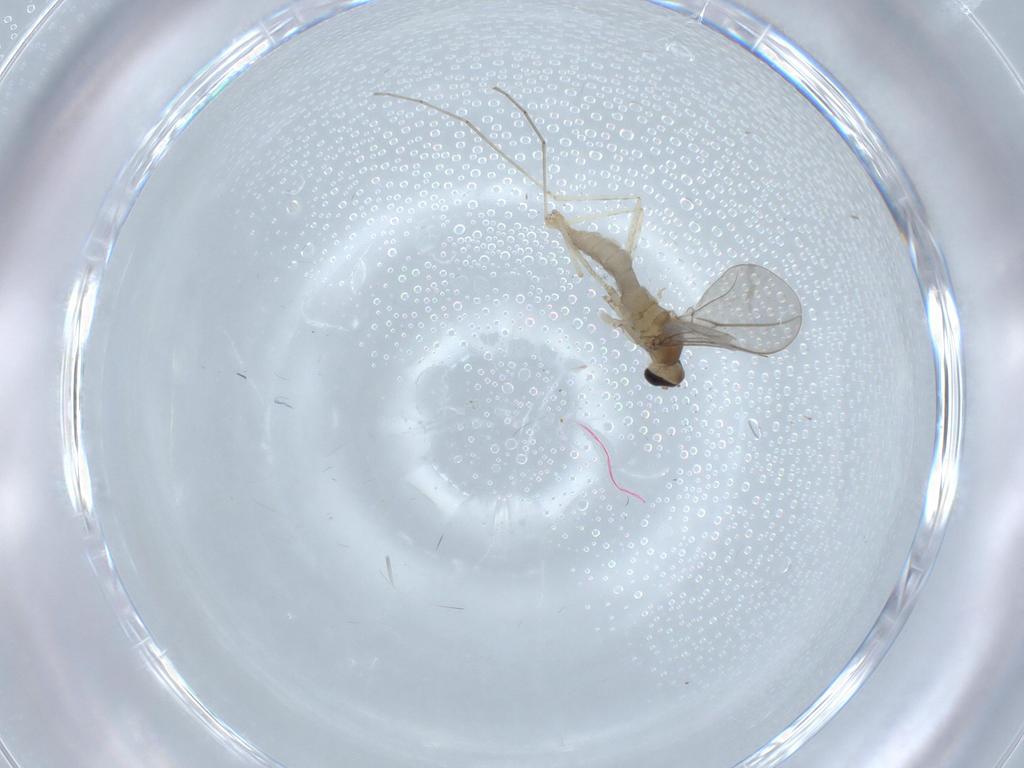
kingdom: Animalia
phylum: Arthropoda
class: Insecta
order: Diptera
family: Cecidomyiidae
